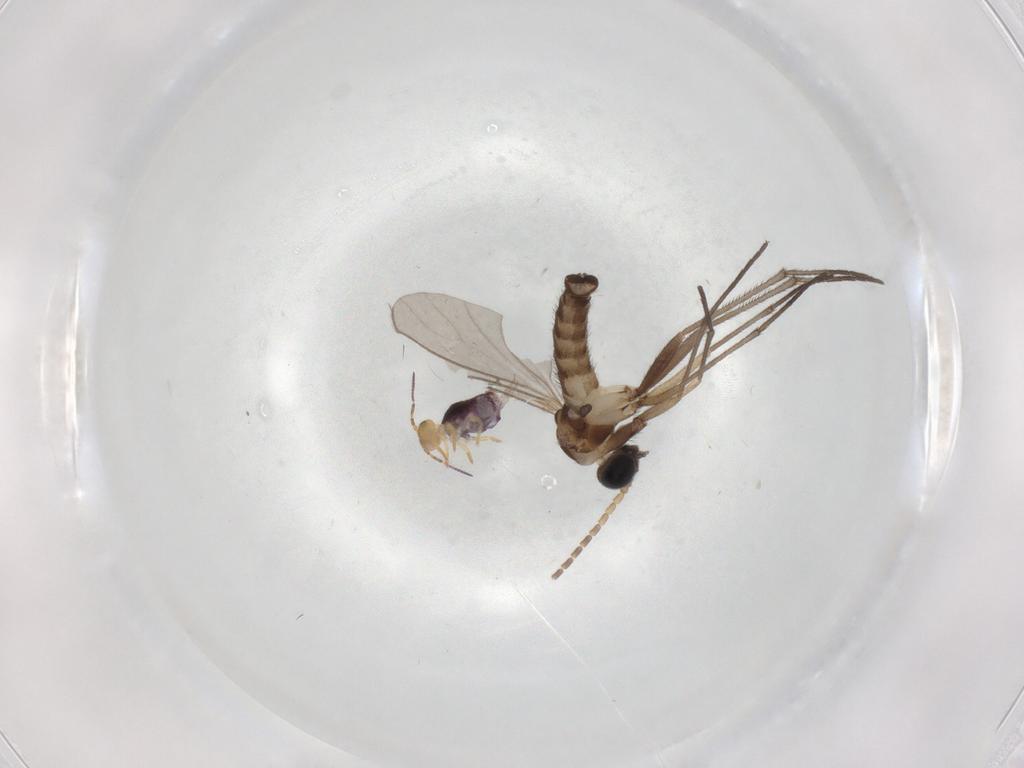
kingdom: Animalia
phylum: Arthropoda
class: Insecta
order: Diptera
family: Sciaridae
